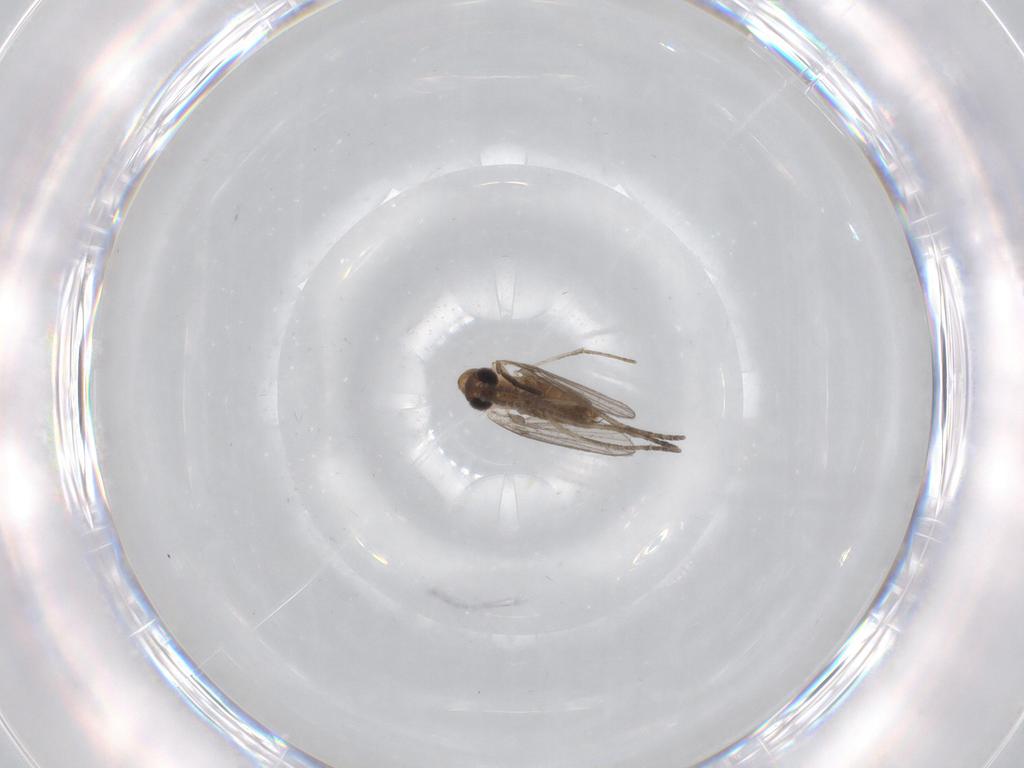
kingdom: Animalia
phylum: Arthropoda
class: Insecta
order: Diptera
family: Psychodidae
